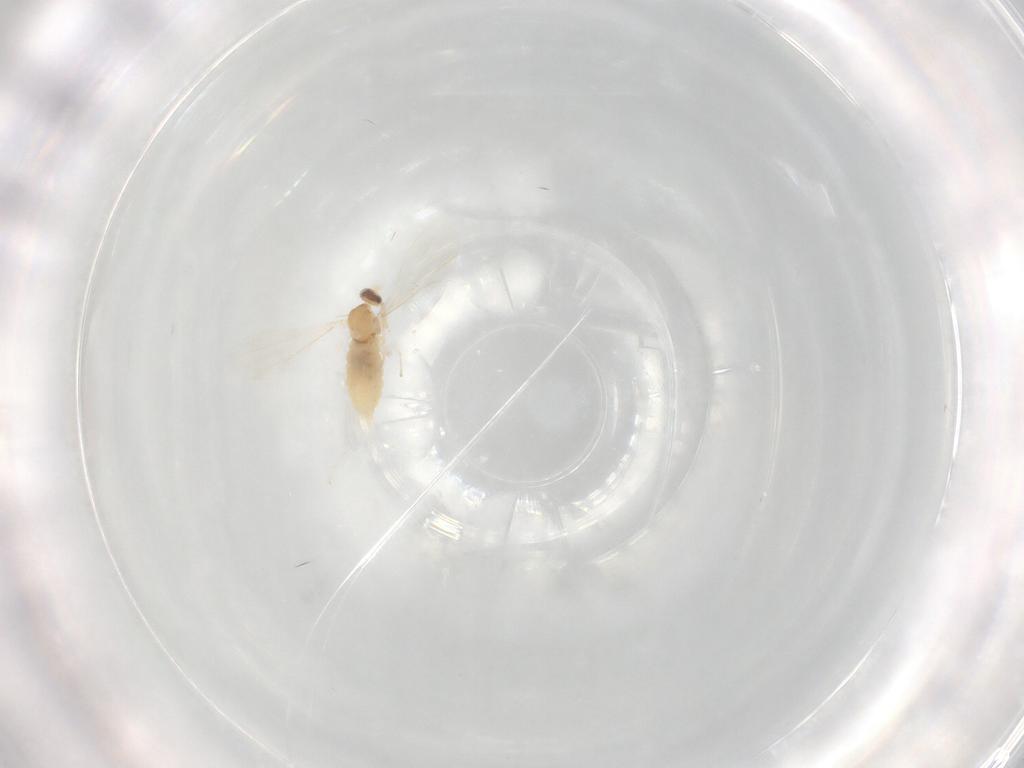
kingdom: Animalia
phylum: Arthropoda
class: Insecta
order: Diptera
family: Cecidomyiidae
